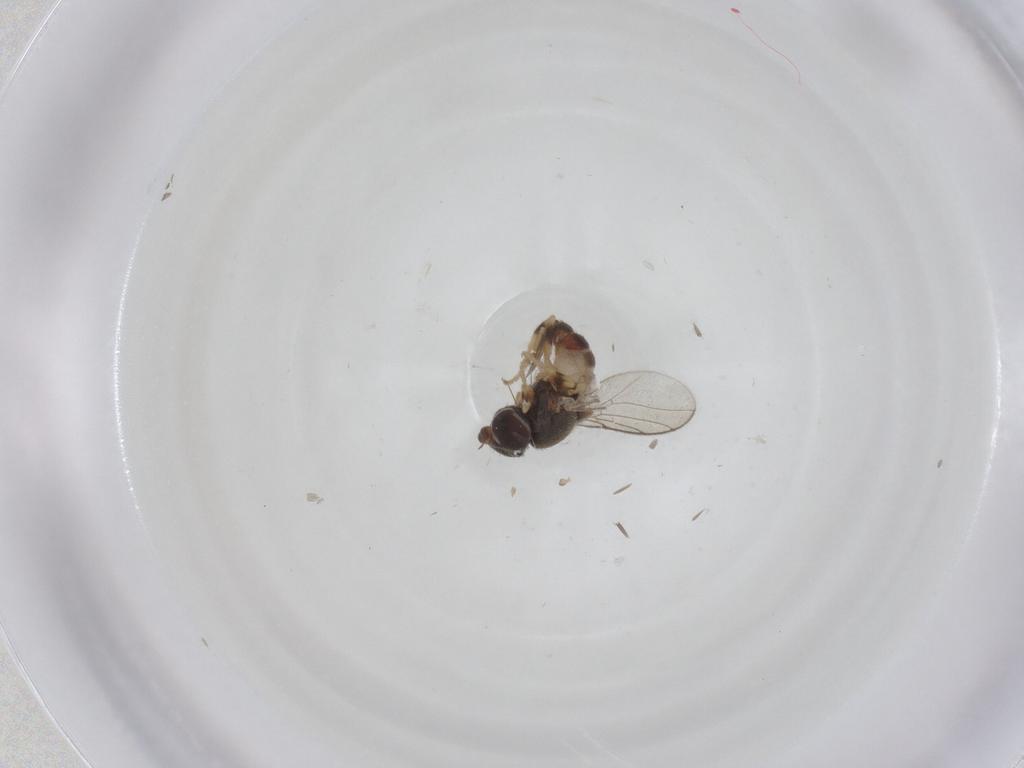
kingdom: Animalia
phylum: Arthropoda
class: Insecta
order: Diptera
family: Chloropidae
